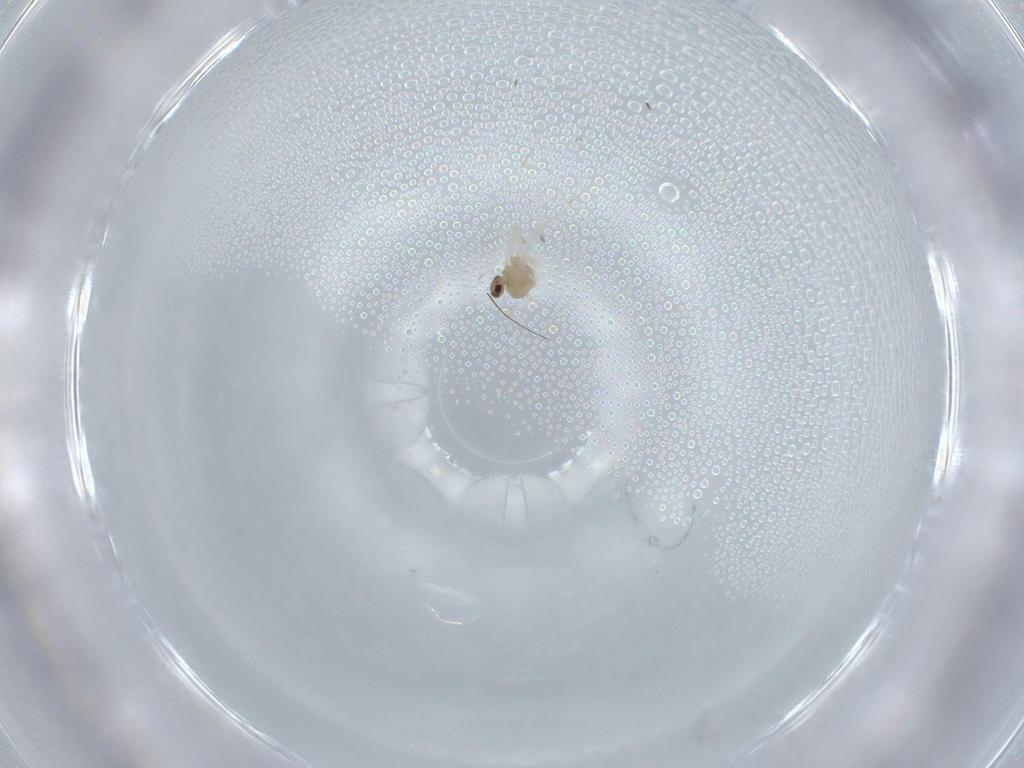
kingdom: Animalia
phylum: Arthropoda
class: Insecta
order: Diptera
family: Cecidomyiidae
